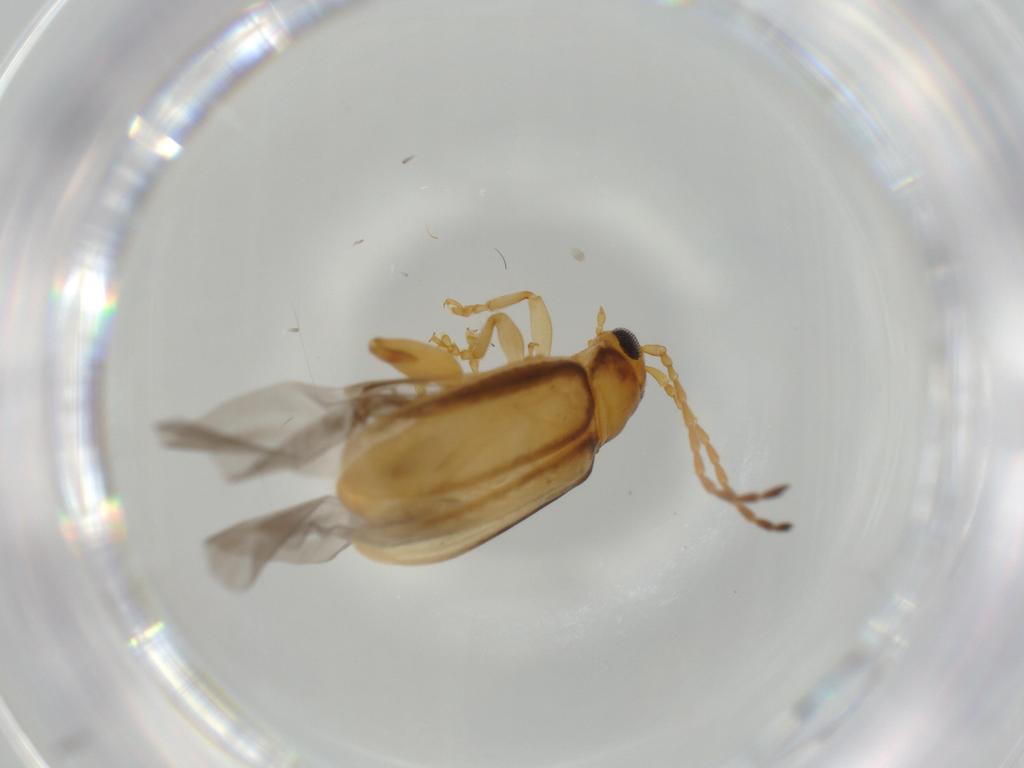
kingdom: Animalia
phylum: Arthropoda
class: Insecta
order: Coleoptera
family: Chrysomelidae
